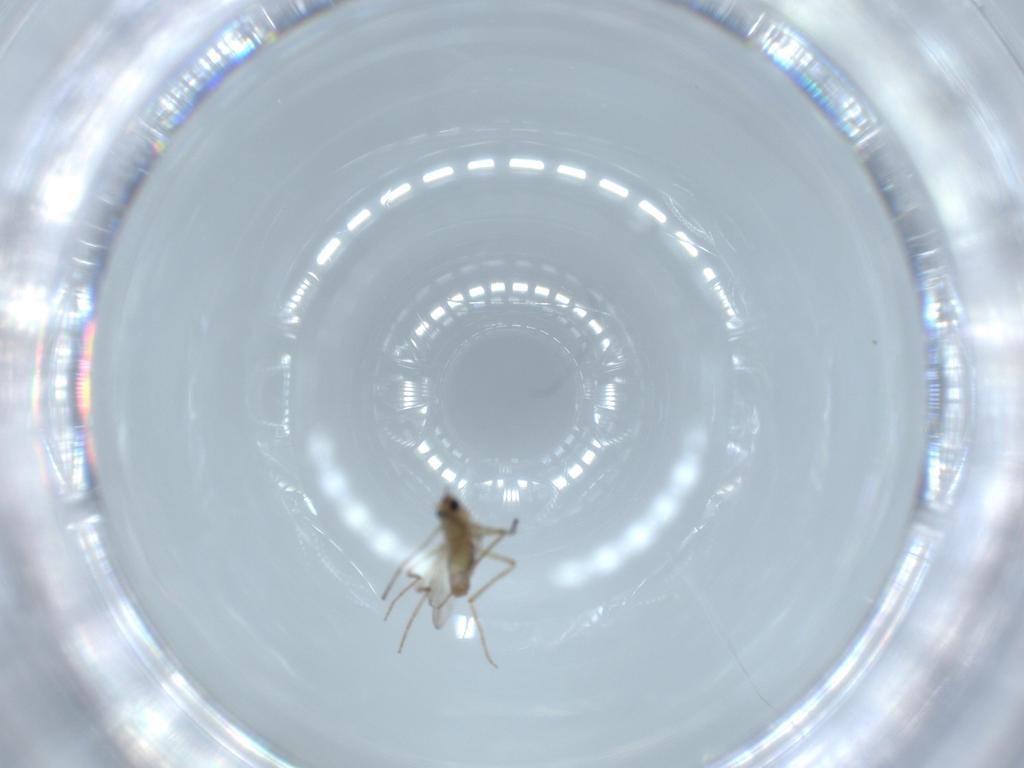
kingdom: Animalia
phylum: Arthropoda
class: Insecta
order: Diptera
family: Chironomidae
